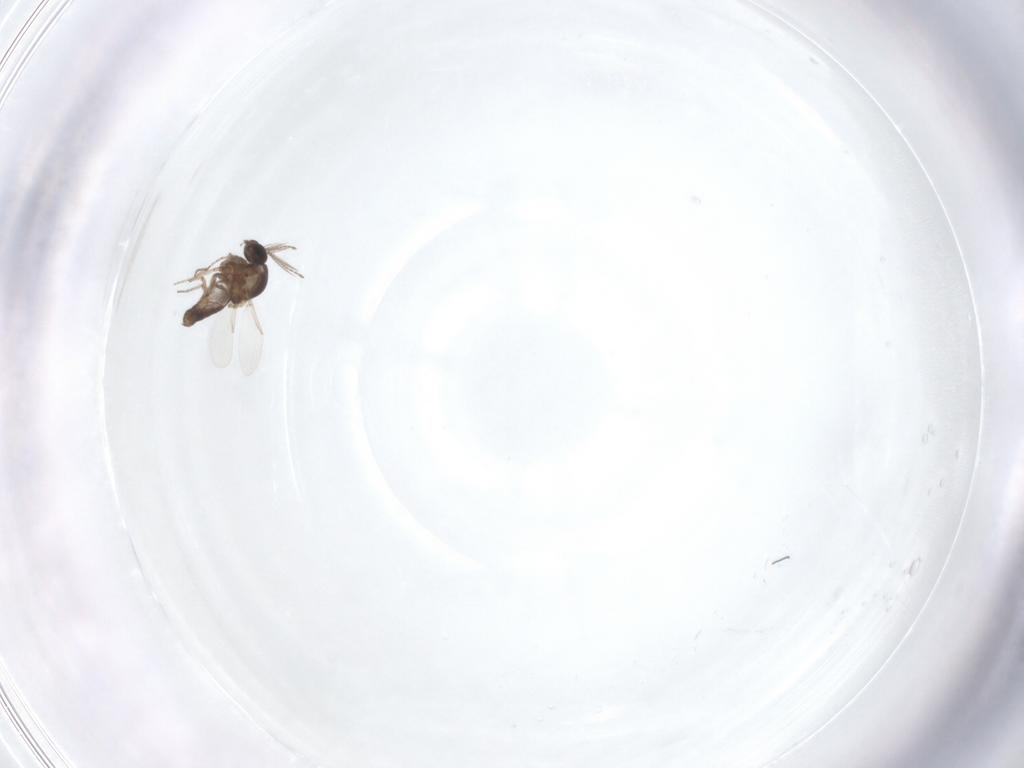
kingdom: Animalia
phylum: Arthropoda
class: Insecta
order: Diptera
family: Ceratopogonidae
